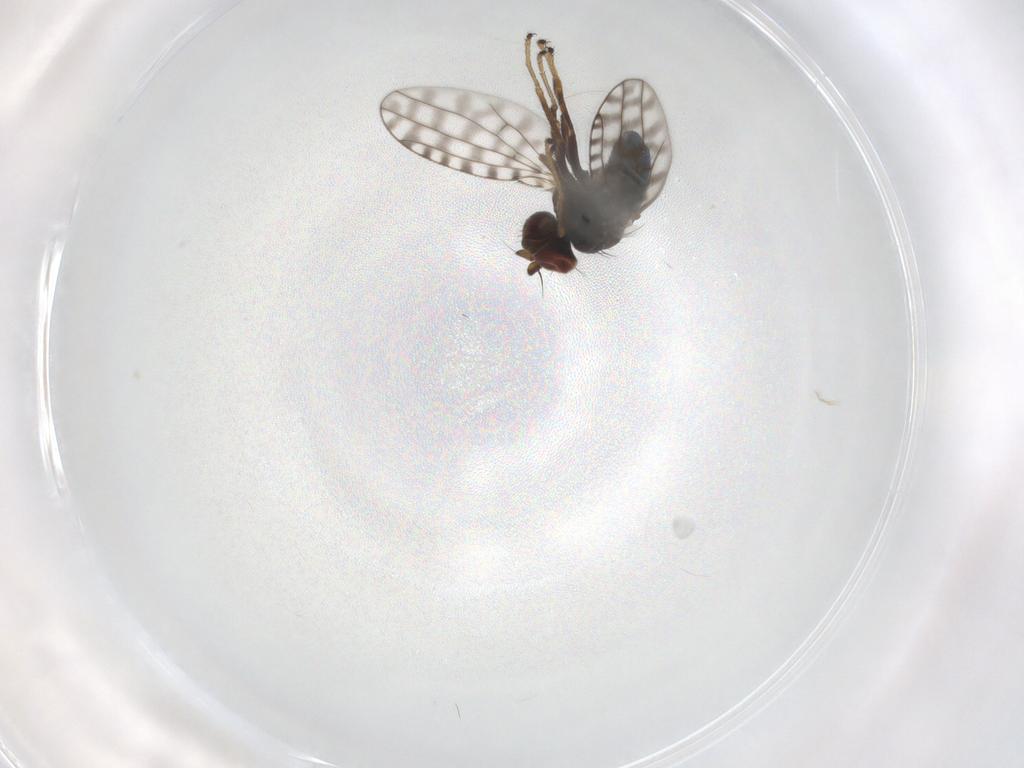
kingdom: Animalia
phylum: Arthropoda
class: Insecta
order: Diptera
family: Ephydridae
